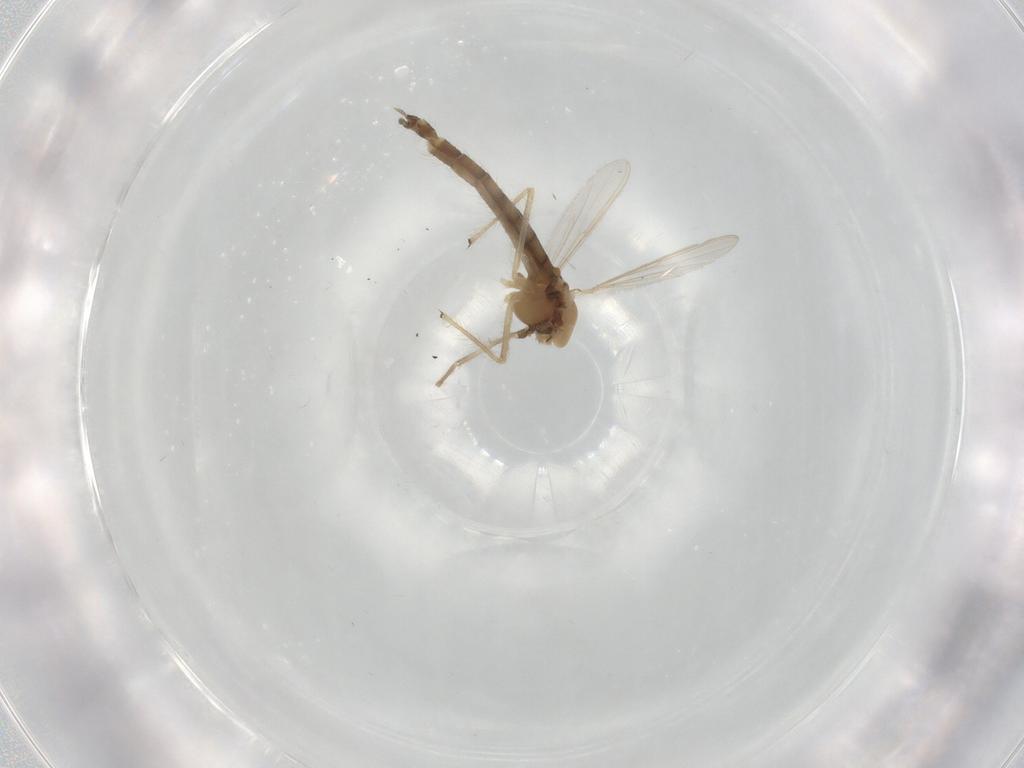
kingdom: Animalia
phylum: Arthropoda
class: Insecta
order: Diptera
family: Chironomidae
